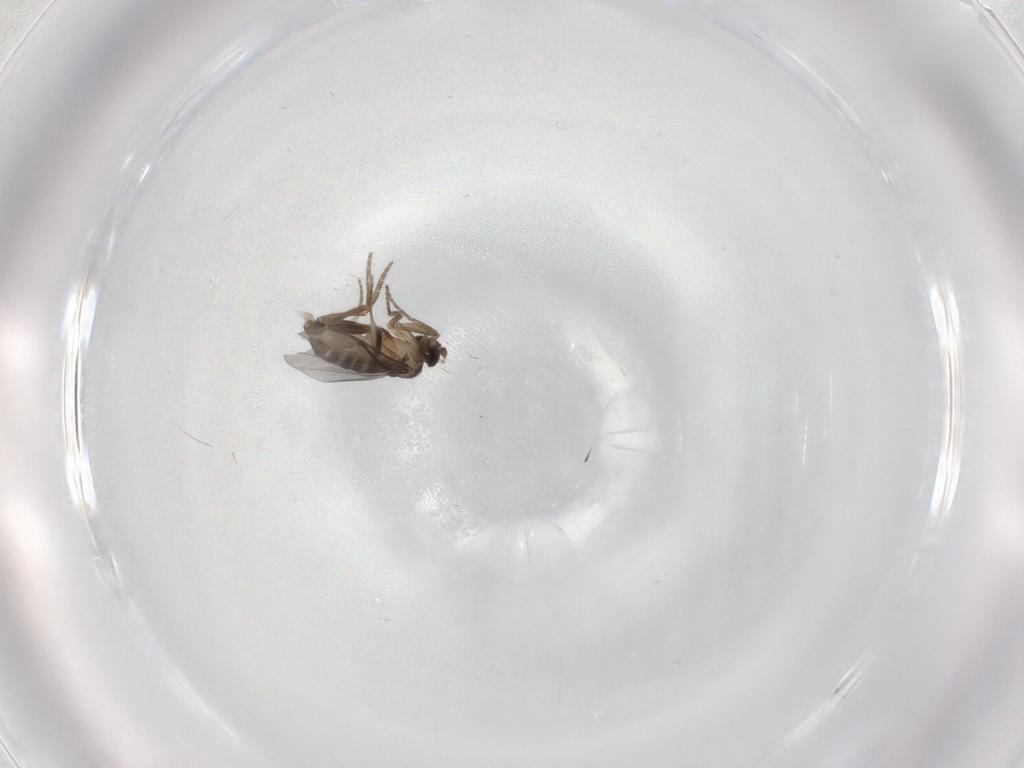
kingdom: Animalia
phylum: Arthropoda
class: Insecta
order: Diptera
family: Phoridae
